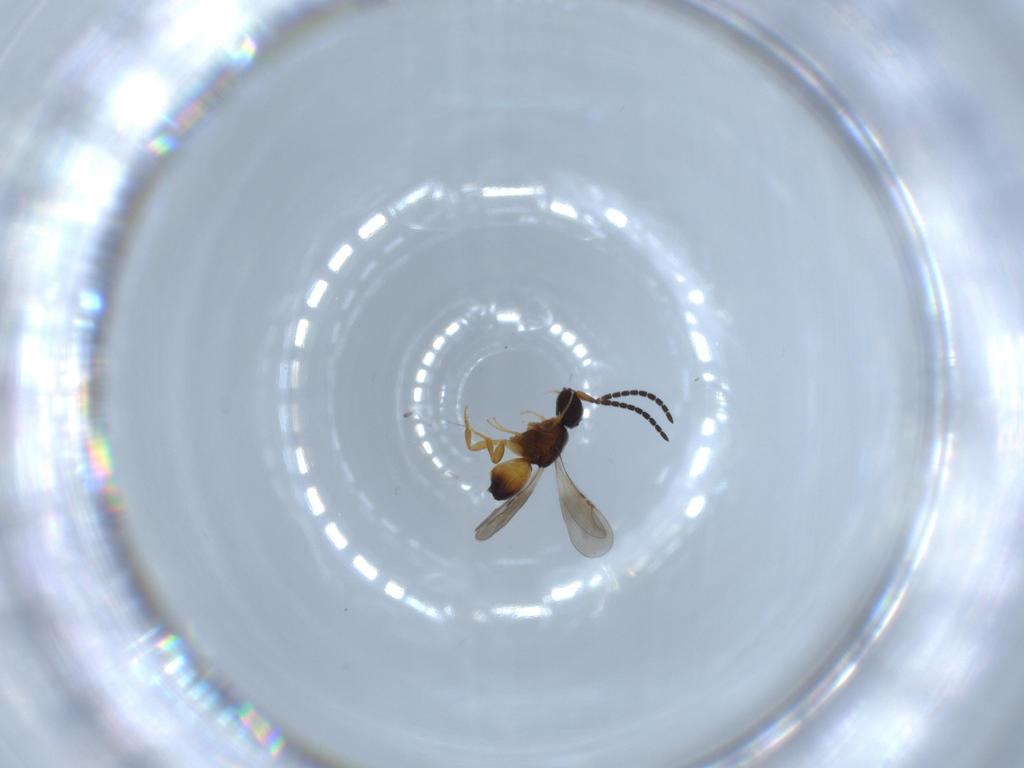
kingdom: Animalia
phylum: Arthropoda
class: Insecta
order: Hymenoptera
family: Ceraphronidae
